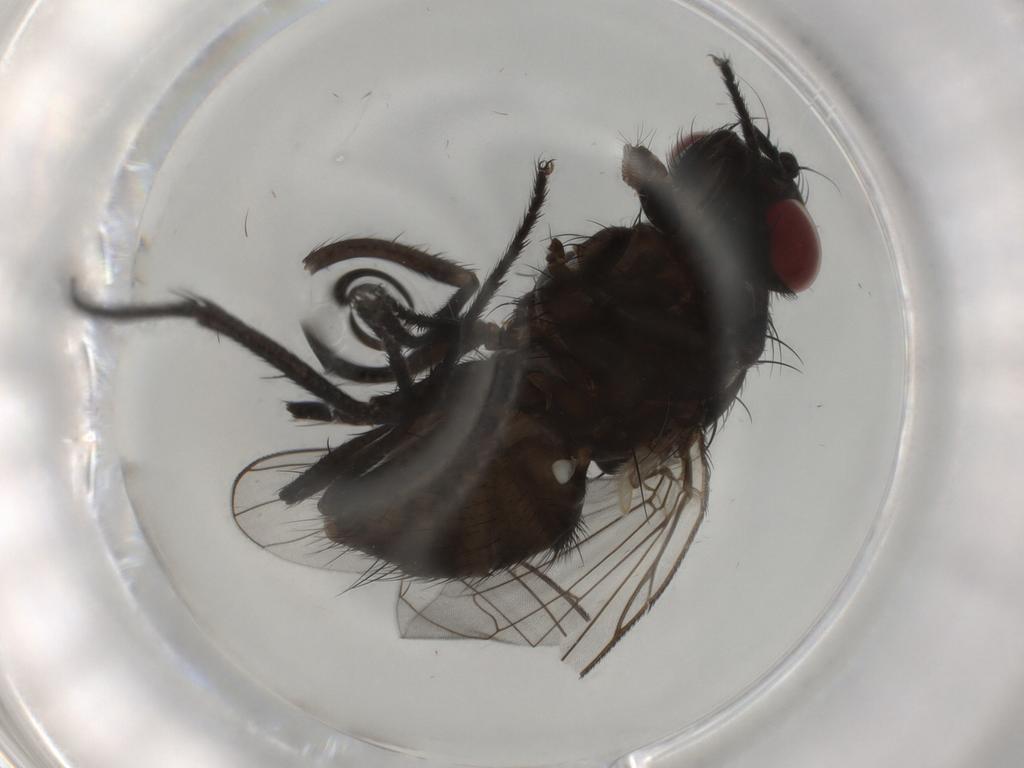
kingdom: Animalia
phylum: Arthropoda
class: Insecta
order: Diptera
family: Muscidae
